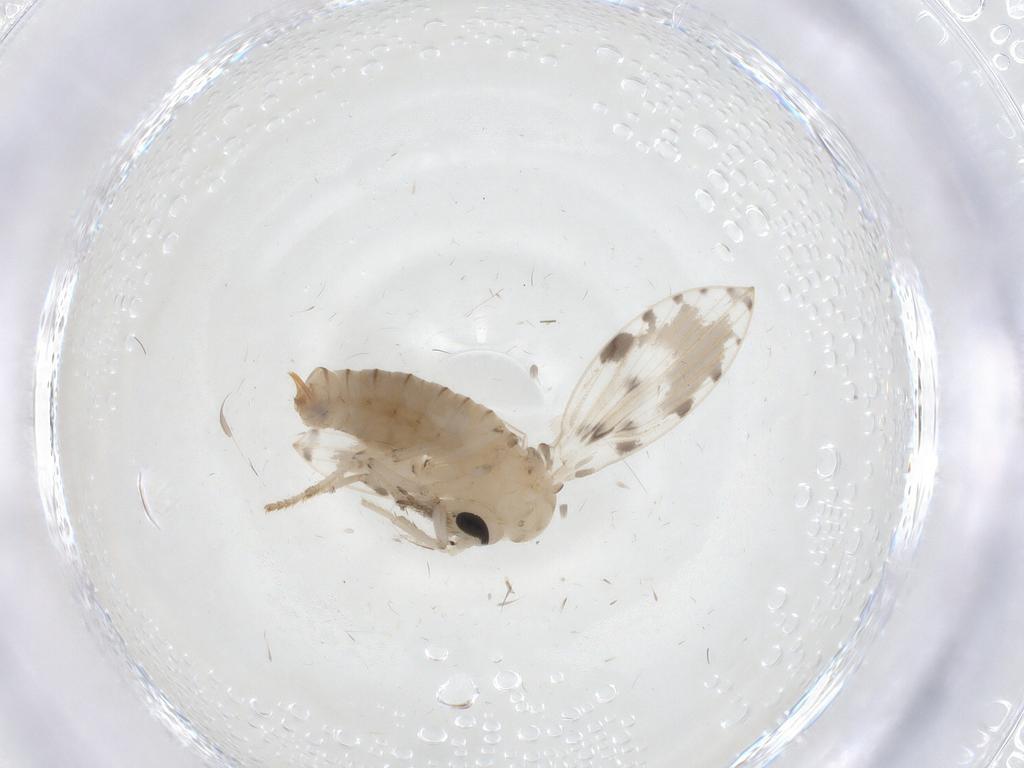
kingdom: Animalia
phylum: Arthropoda
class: Insecta
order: Diptera
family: Psychodidae
